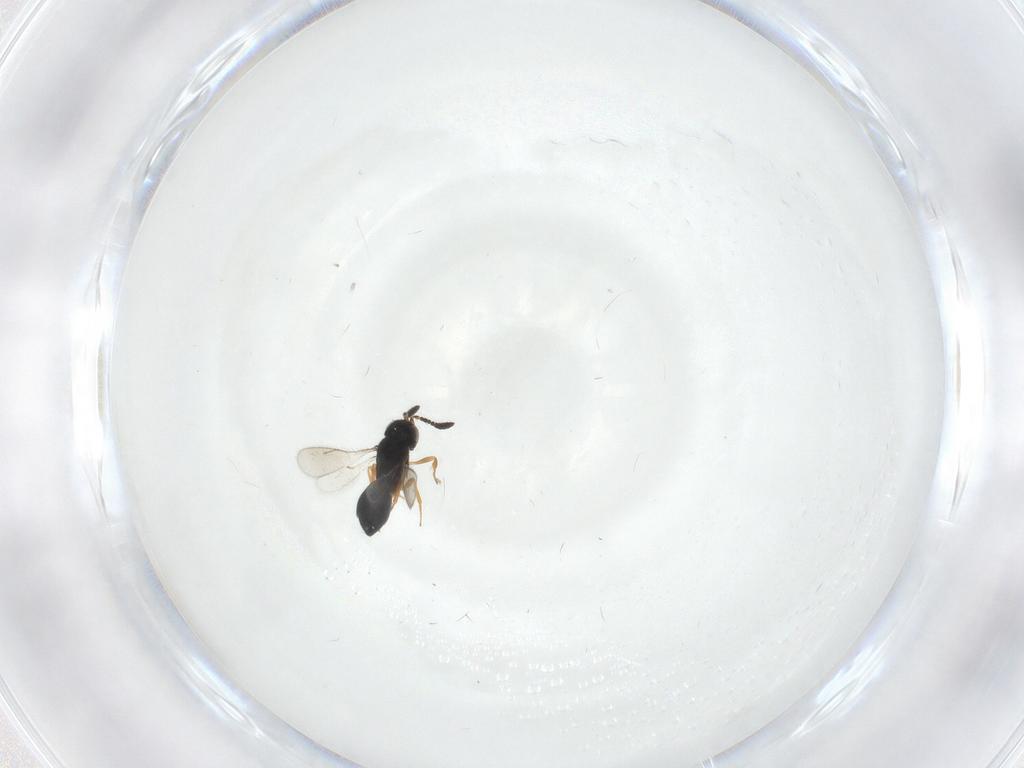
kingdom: Animalia
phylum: Arthropoda
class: Insecta
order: Hymenoptera
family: Scelionidae
